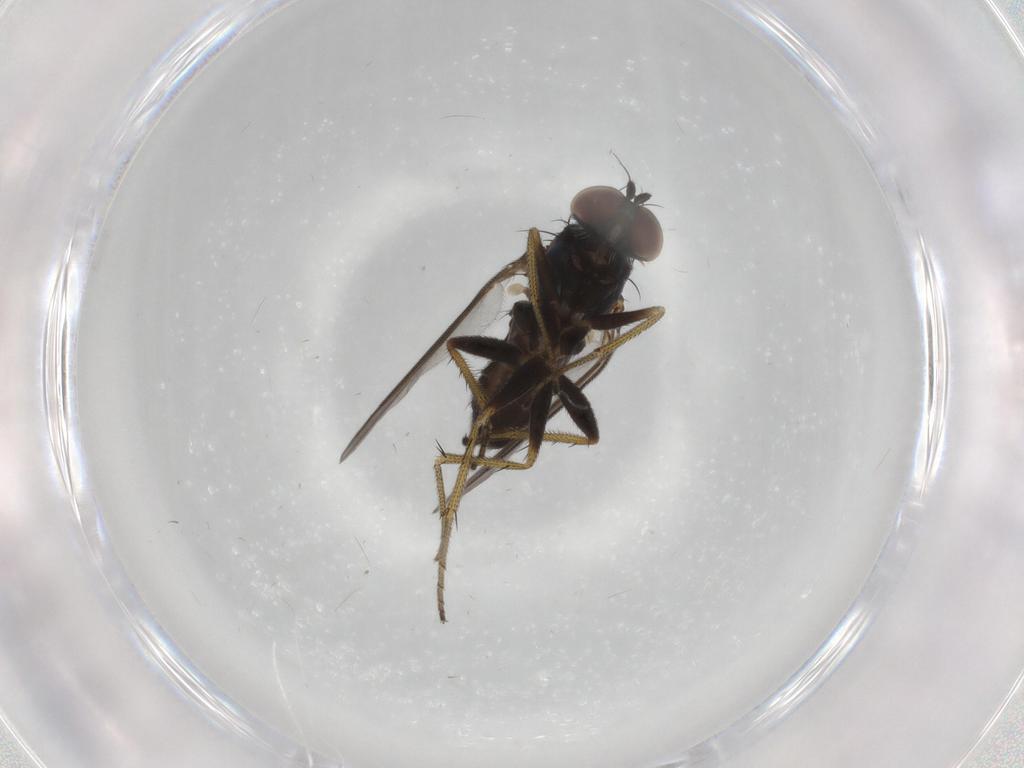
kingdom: Animalia
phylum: Arthropoda
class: Insecta
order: Diptera
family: Dolichopodidae
